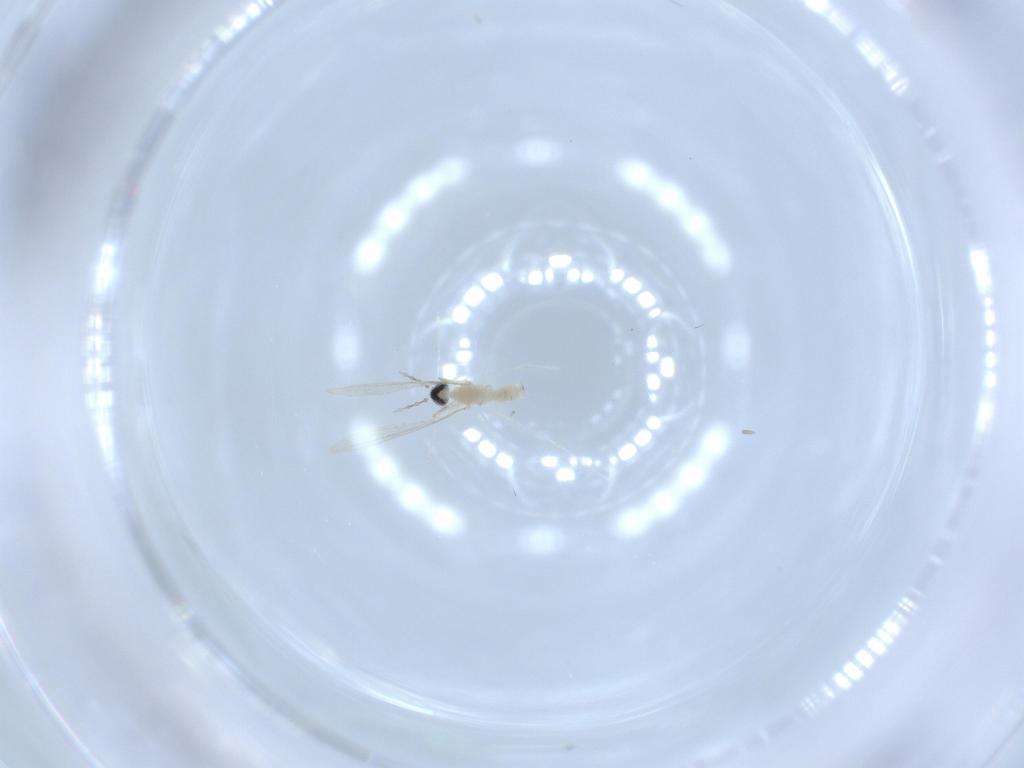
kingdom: Animalia
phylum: Arthropoda
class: Insecta
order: Diptera
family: Cecidomyiidae
